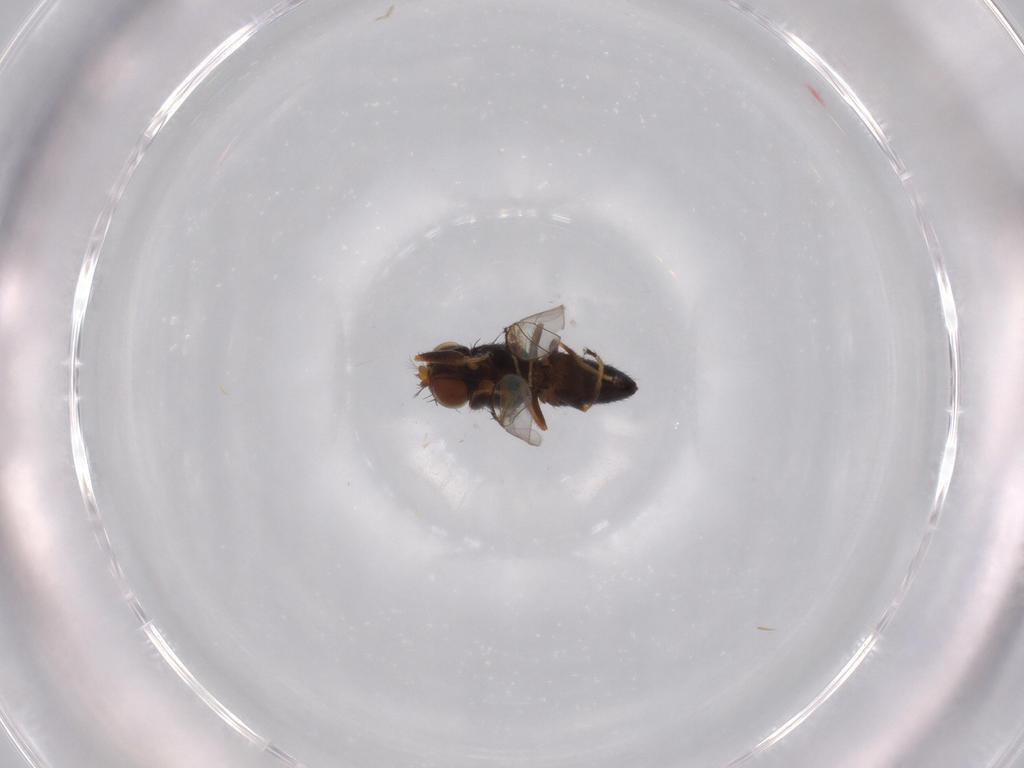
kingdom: Animalia
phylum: Arthropoda
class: Insecta
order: Diptera
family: Ephydridae
